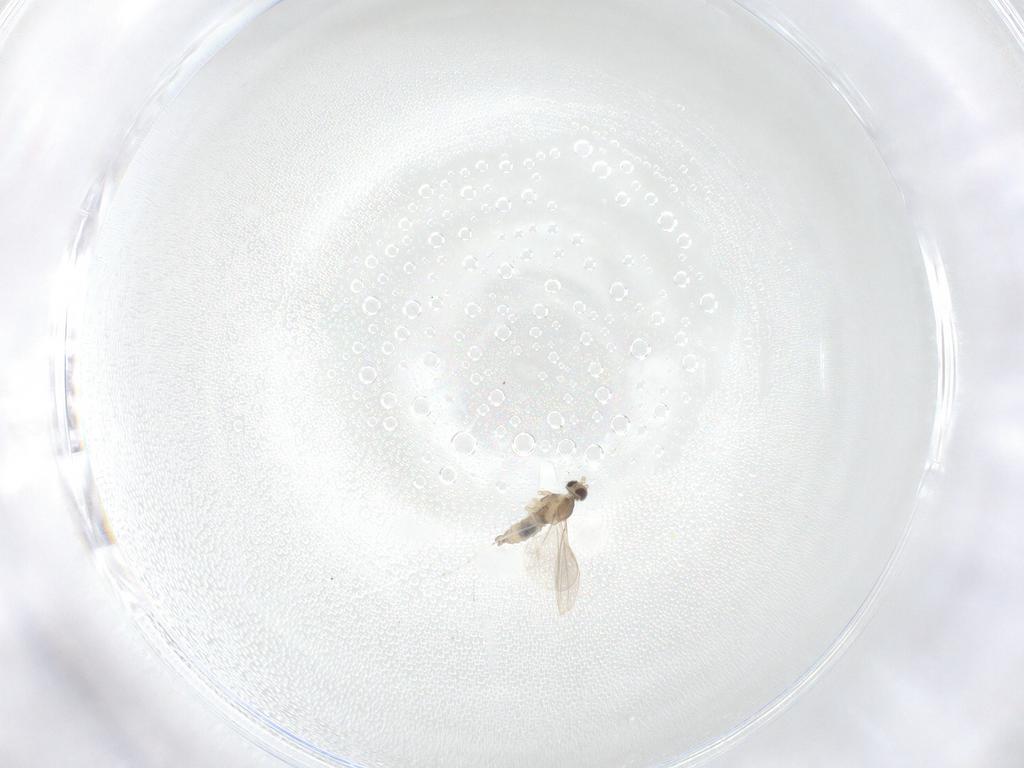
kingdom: Animalia
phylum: Arthropoda
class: Insecta
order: Diptera
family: Cecidomyiidae
